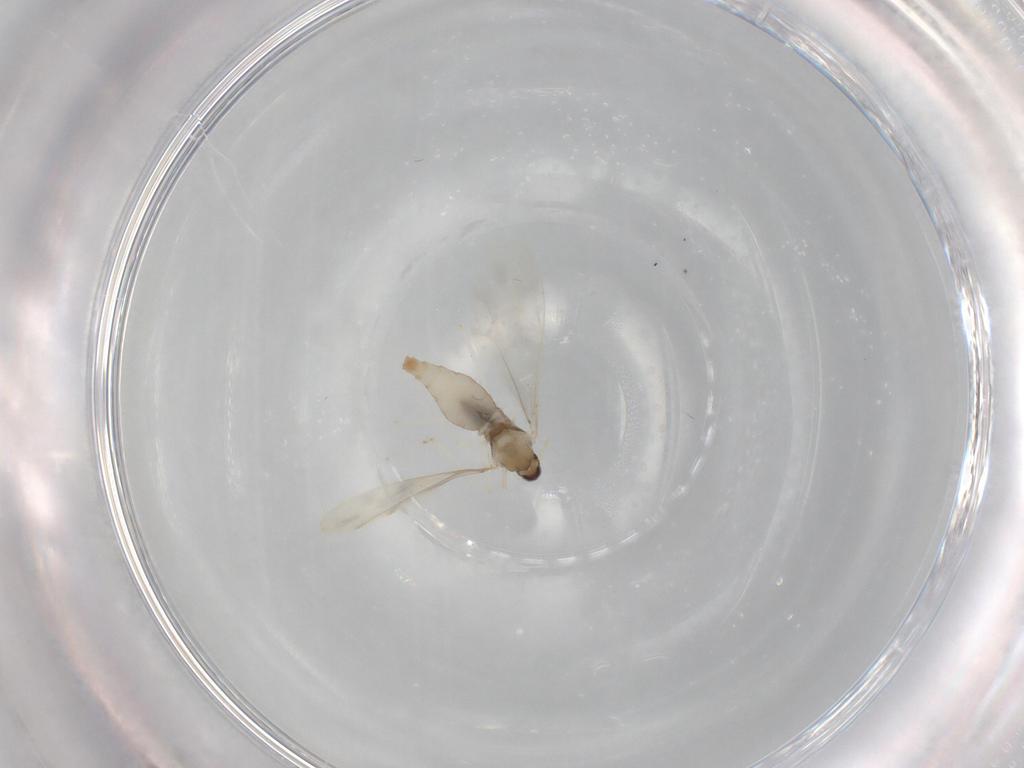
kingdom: Animalia
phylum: Arthropoda
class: Insecta
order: Diptera
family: Cecidomyiidae
